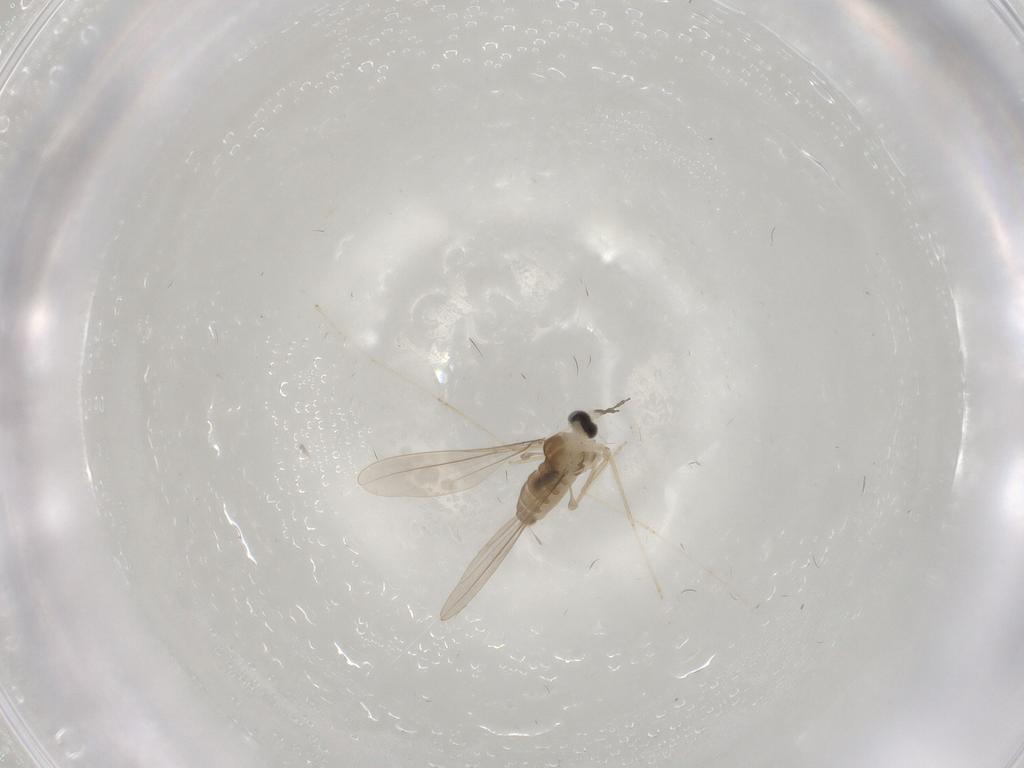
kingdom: Animalia
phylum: Arthropoda
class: Insecta
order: Diptera
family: Cecidomyiidae
